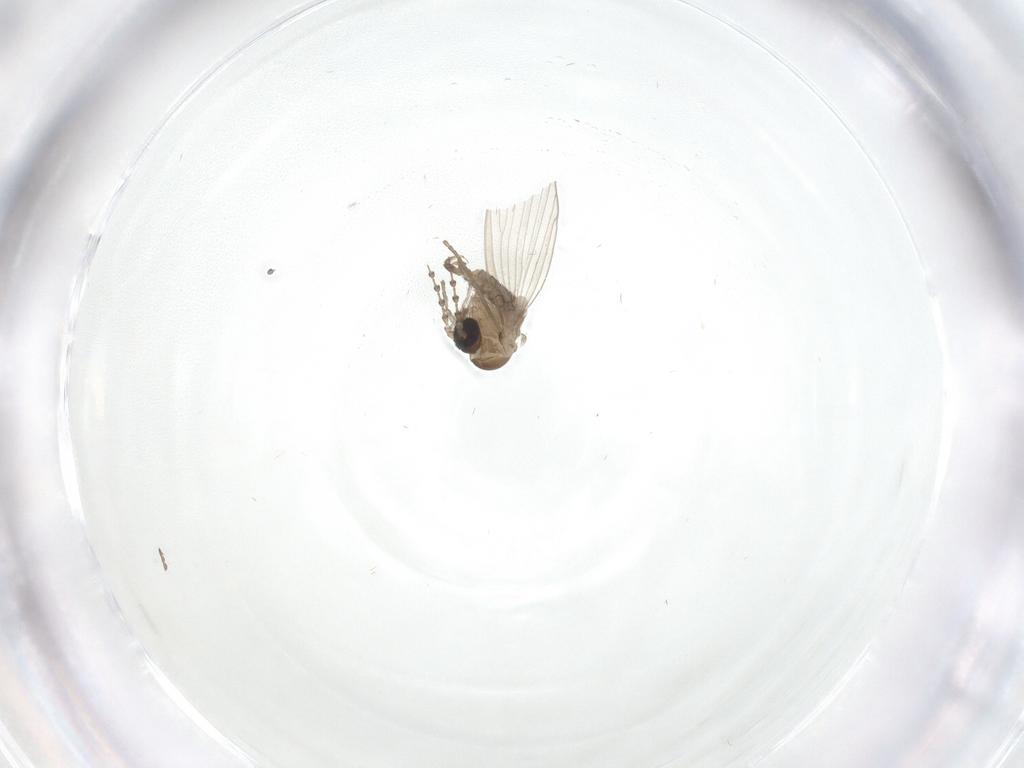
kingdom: Animalia
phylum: Arthropoda
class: Insecta
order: Diptera
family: Psychodidae
